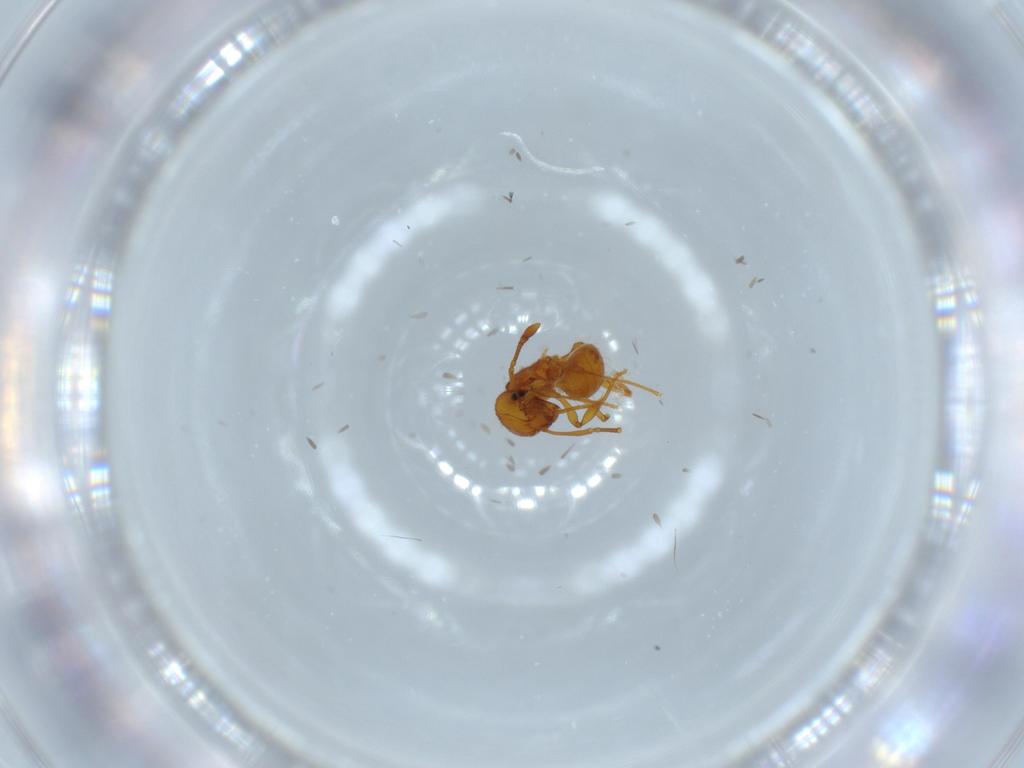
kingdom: Animalia
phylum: Arthropoda
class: Insecta
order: Hymenoptera
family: Formicidae
